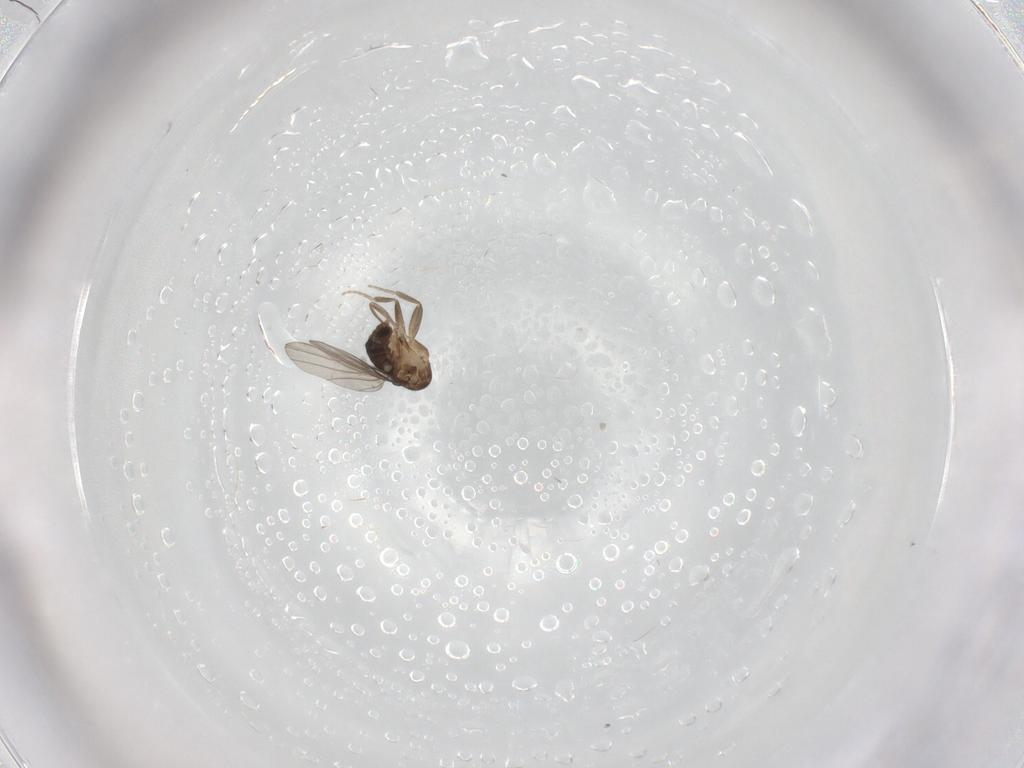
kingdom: Animalia
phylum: Arthropoda
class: Insecta
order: Diptera
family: Phoridae
